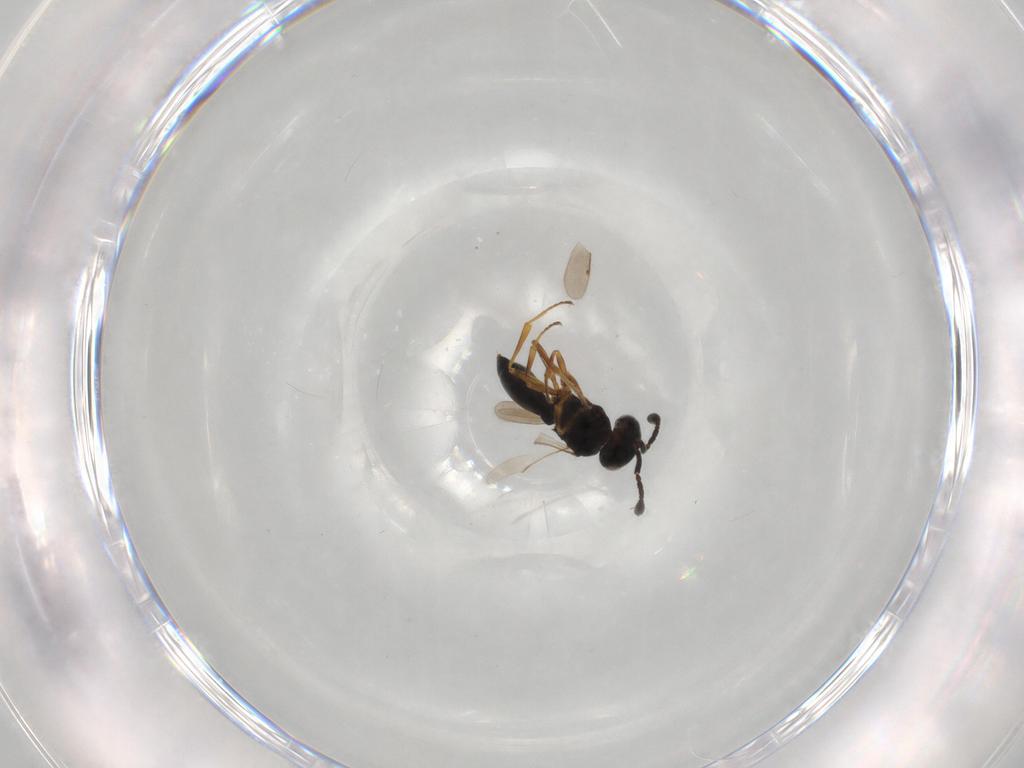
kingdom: Animalia
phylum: Arthropoda
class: Insecta
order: Hymenoptera
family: Scelionidae
